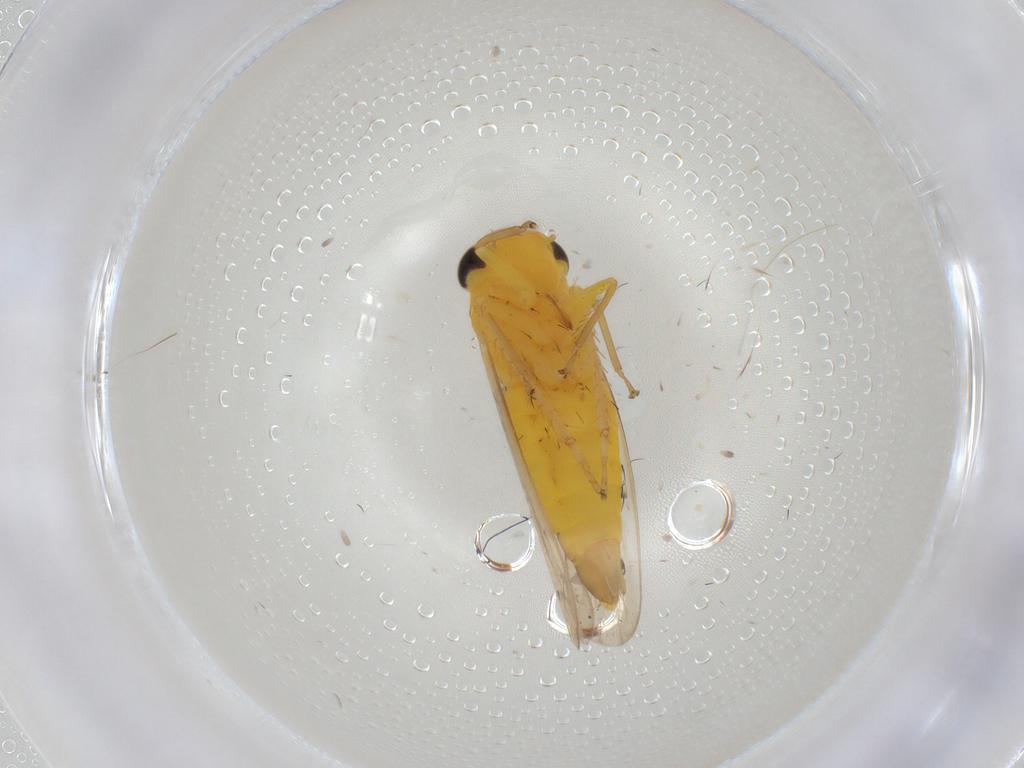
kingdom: Animalia
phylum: Arthropoda
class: Insecta
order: Hemiptera
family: Cicadellidae
